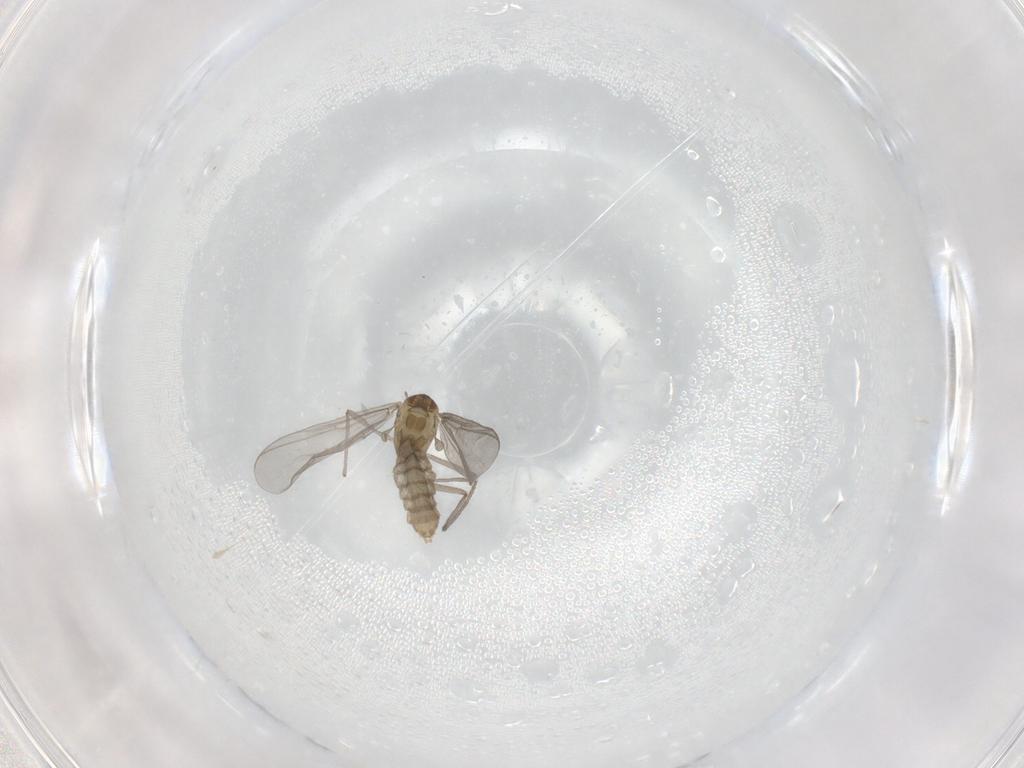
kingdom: Animalia
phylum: Arthropoda
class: Insecta
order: Diptera
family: Chironomidae
